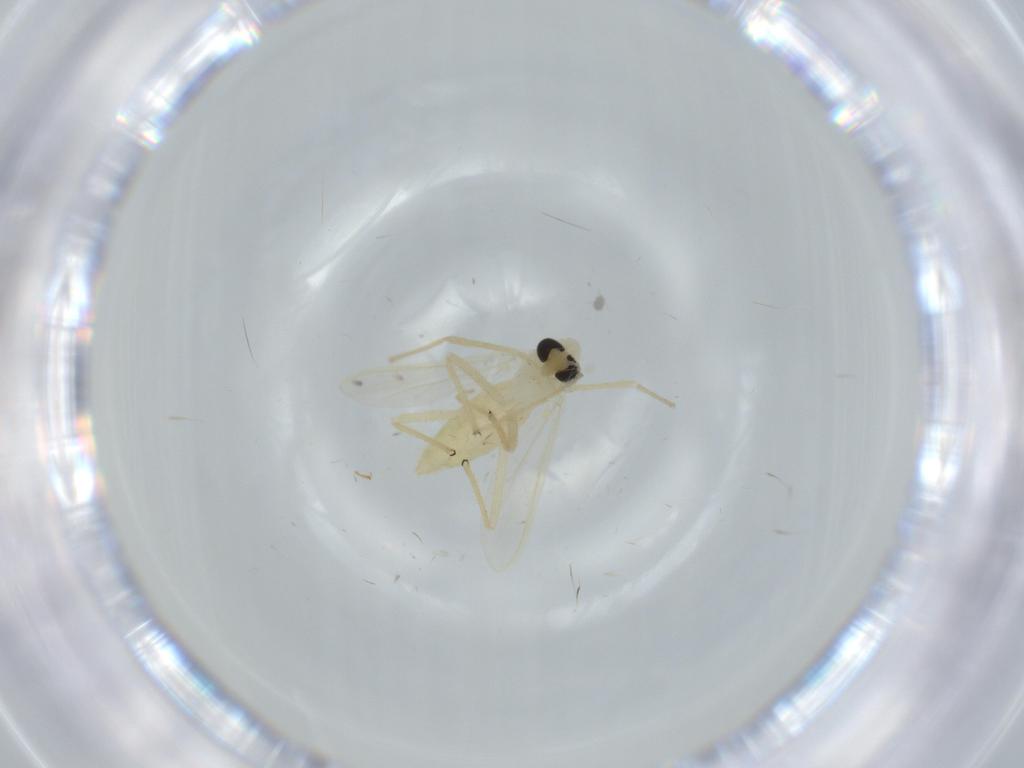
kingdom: Animalia
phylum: Arthropoda
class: Insecta
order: Diptera
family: Chironomidae
